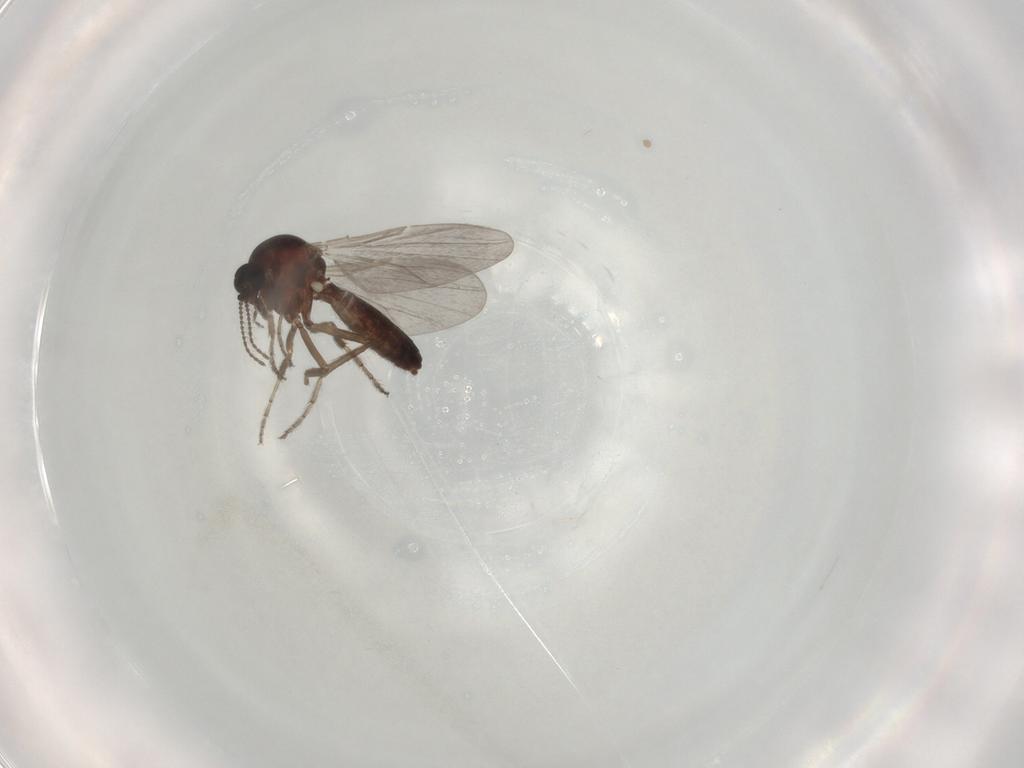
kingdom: Animalia
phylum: Arthropoda
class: Insecta
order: Diptera
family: Ceratopogonidae
